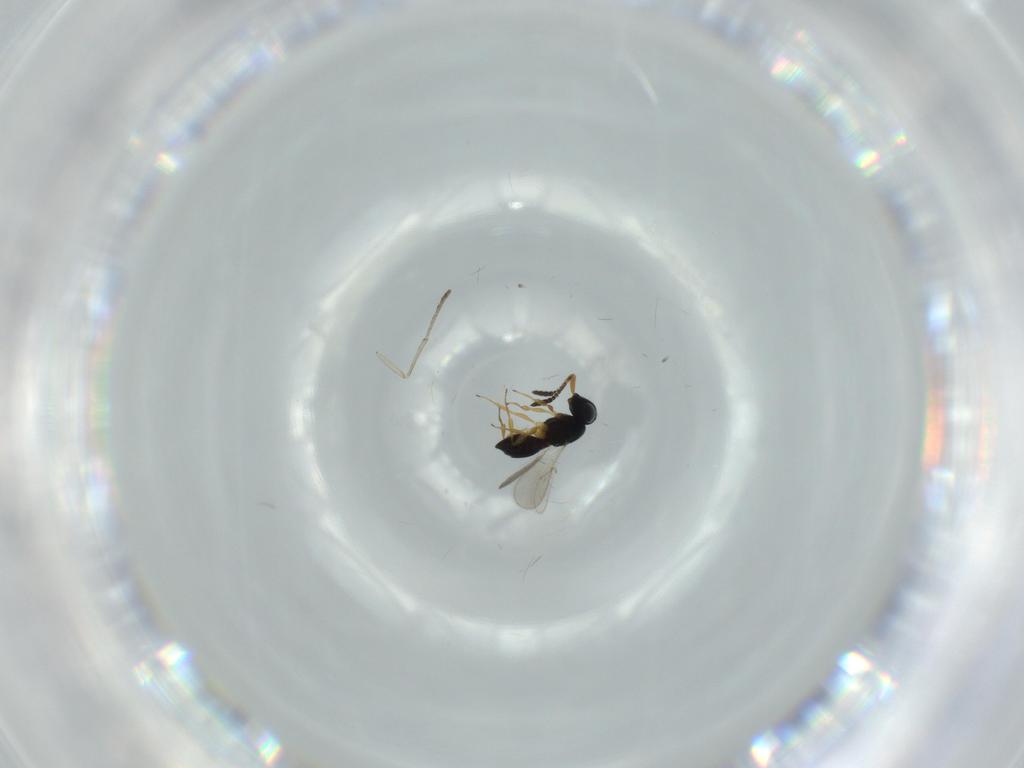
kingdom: Animalia
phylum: Arthropoda
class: Insecta
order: Hymenoptera
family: Scelionidae
